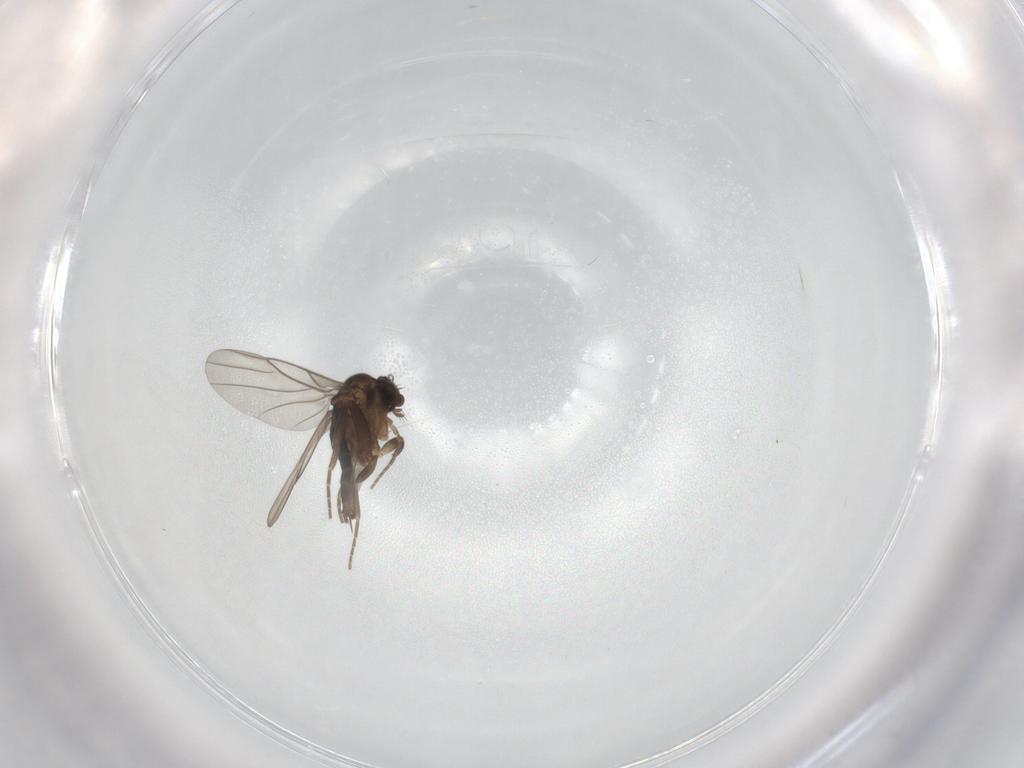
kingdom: Animalia
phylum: Arthropoda
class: Insecta
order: Diptera
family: Phoridae
